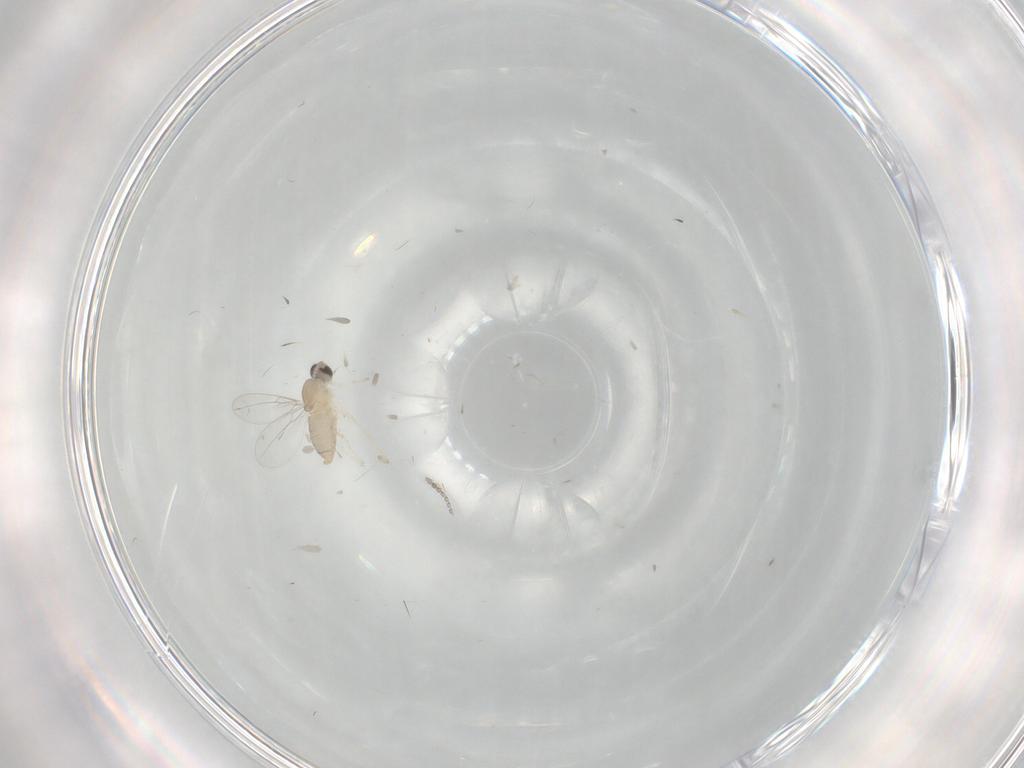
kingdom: Animalia
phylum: Arthropoda
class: Insecta
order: Diptera
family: Cecidomyiidae
